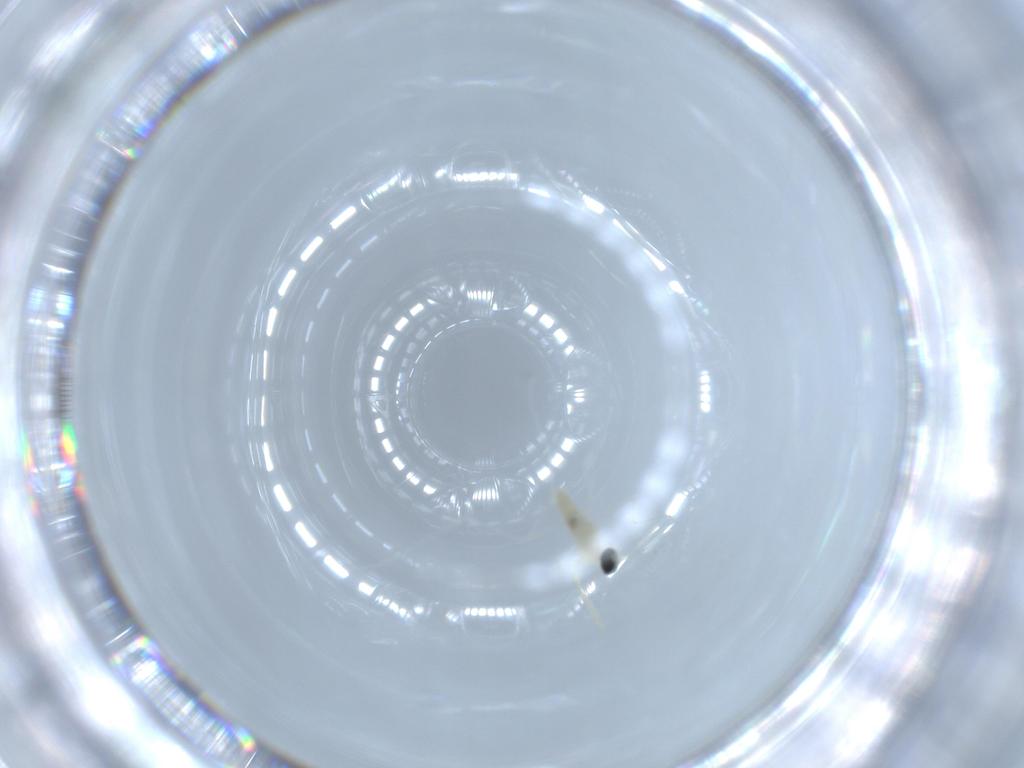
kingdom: Animalia
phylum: Arthropoda
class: Insecta
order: Diptera
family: Cecidomyiidae
